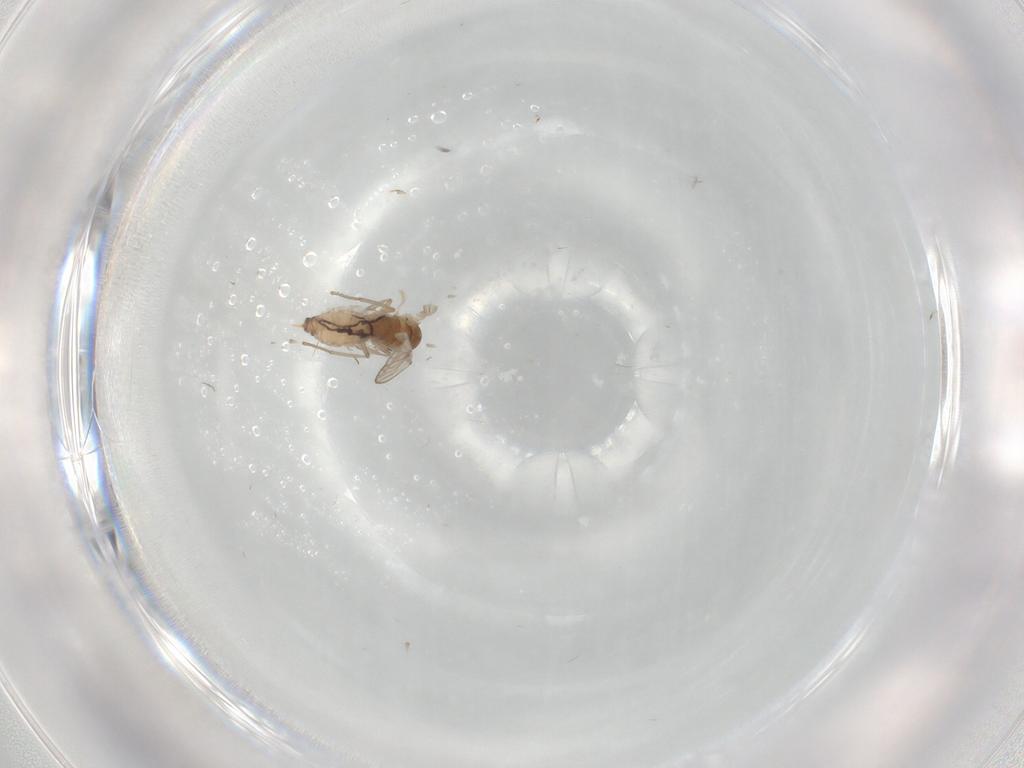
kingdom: Animalia
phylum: Arthropoda
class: Insecta
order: Diptera
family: Psychodidae
